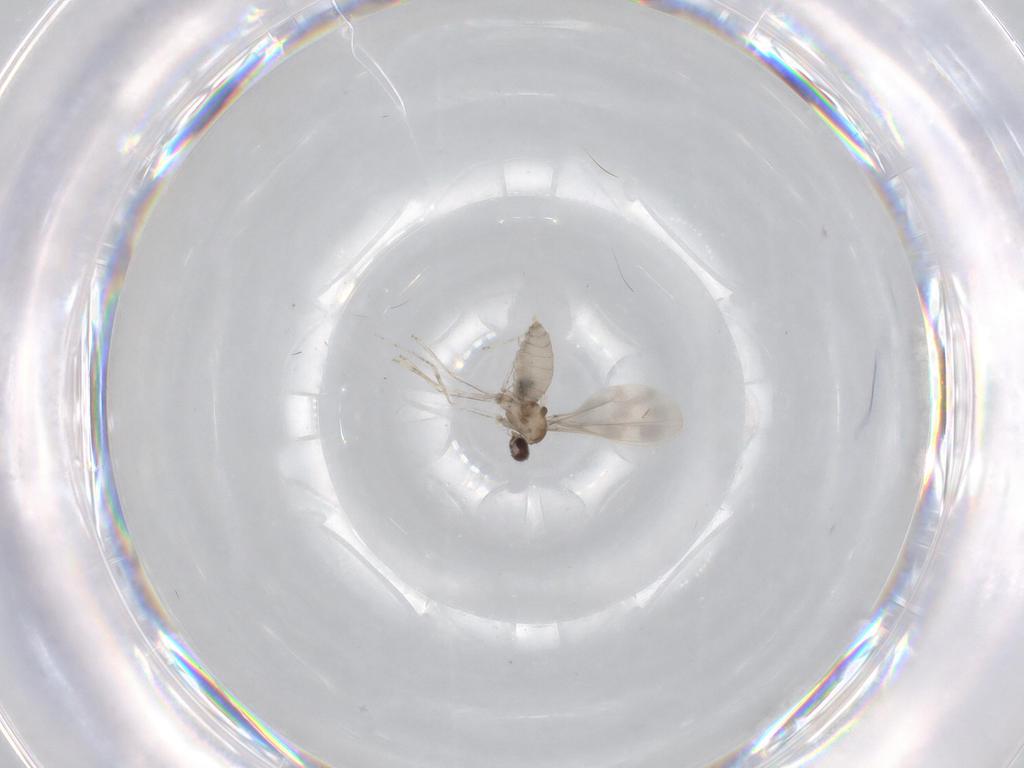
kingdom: Animalia
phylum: Arthropoda
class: Insecta
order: Diptera
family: Cecidomyiidae
